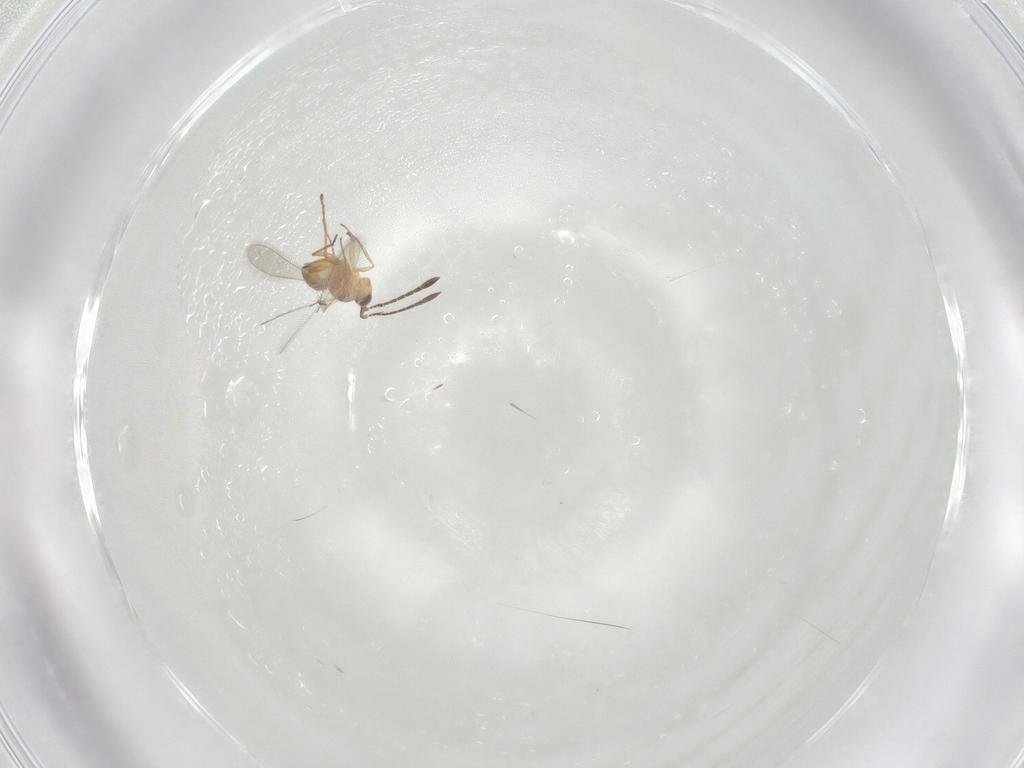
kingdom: Animalia
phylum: Arthropoda
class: Insecta
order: Hymenoptera
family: Mymaridae
